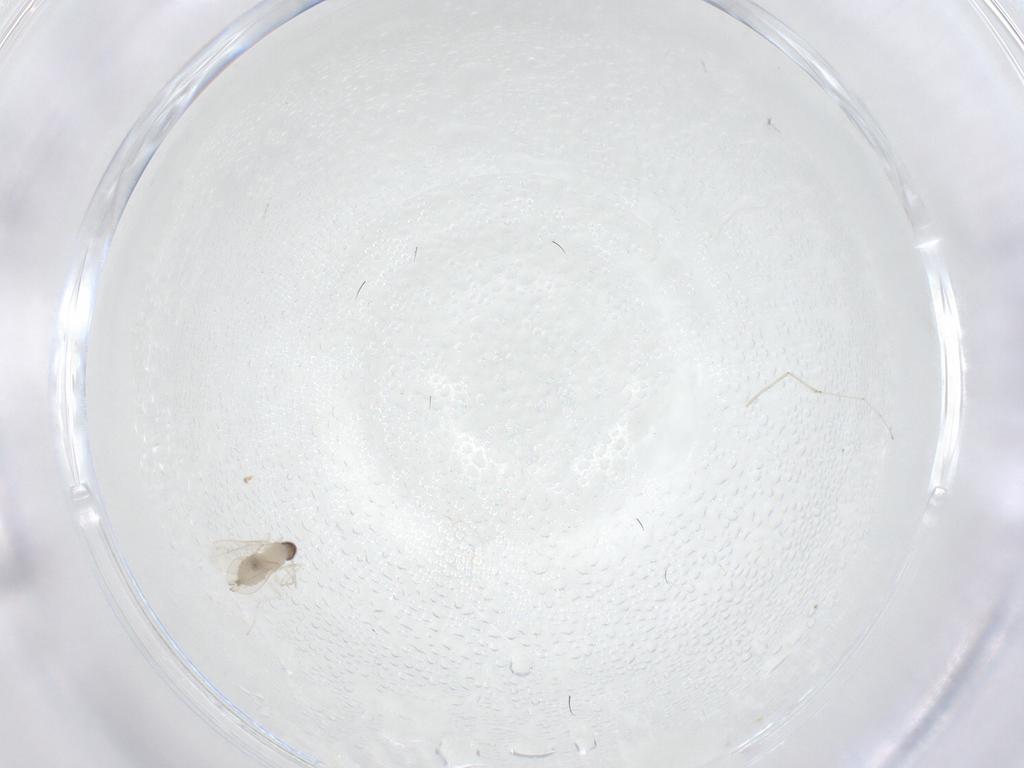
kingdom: Animalia
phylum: Arthropoda
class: Insecta
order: Diptera
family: Cecidomyiidae
